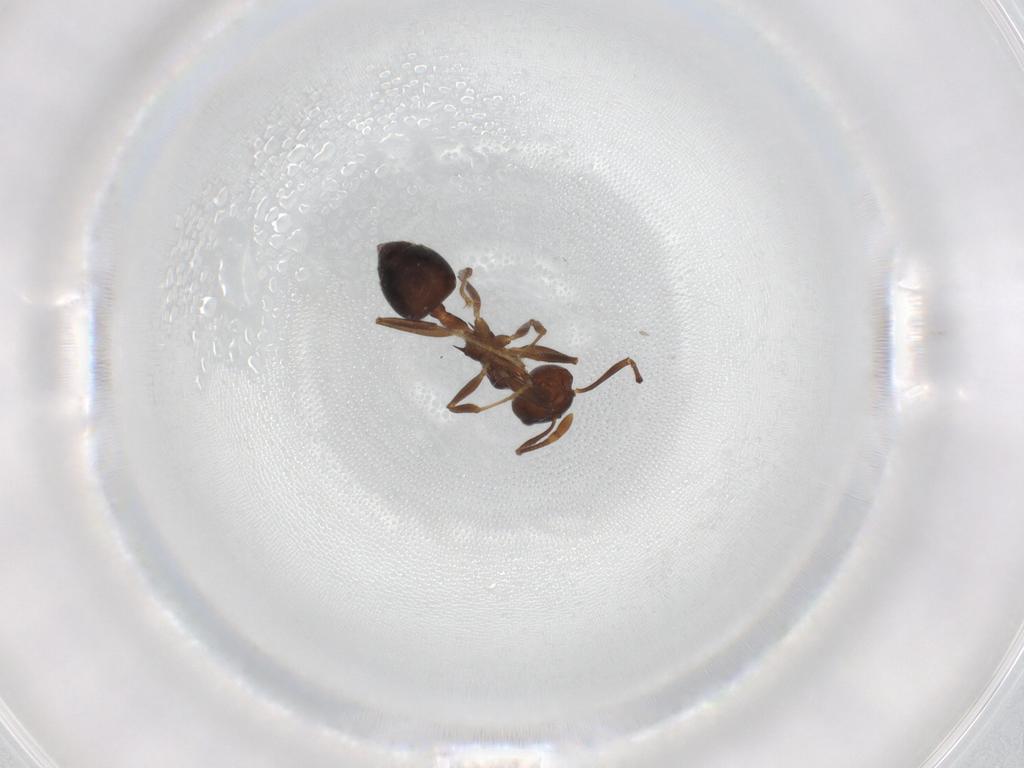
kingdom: Animalia
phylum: Arthropoda
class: Insecta
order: Hymenoptera
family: Formicidae
